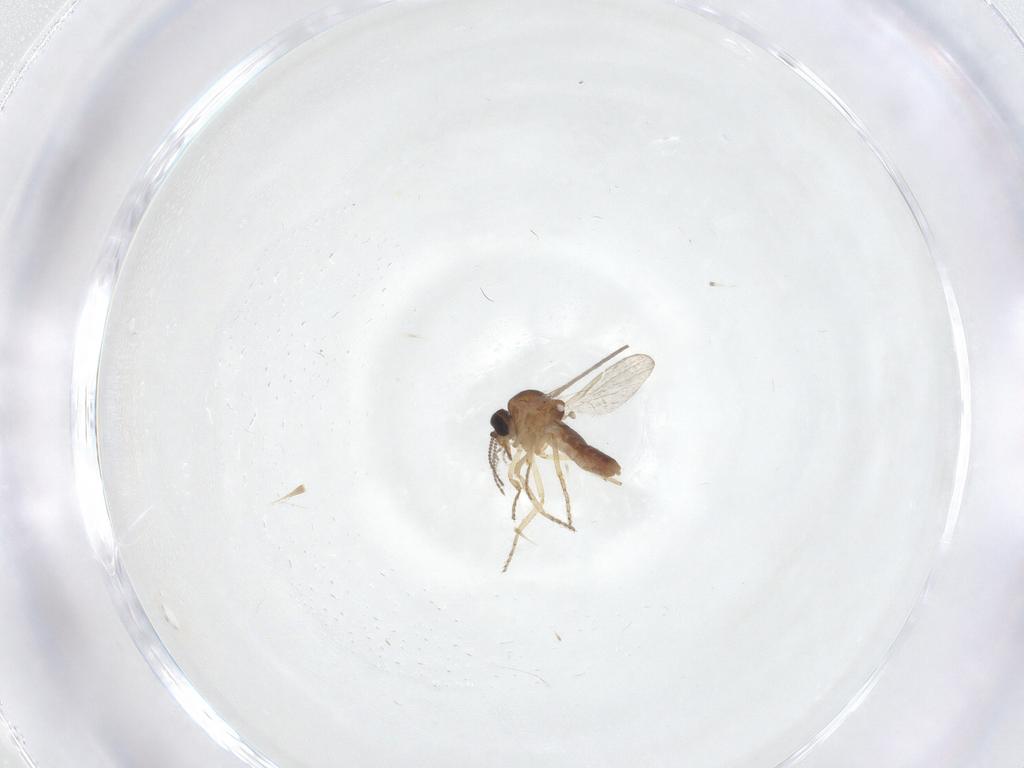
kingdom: Animalia
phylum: Arthropoda
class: Insecta
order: Diptera
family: Ceratopogonidae
